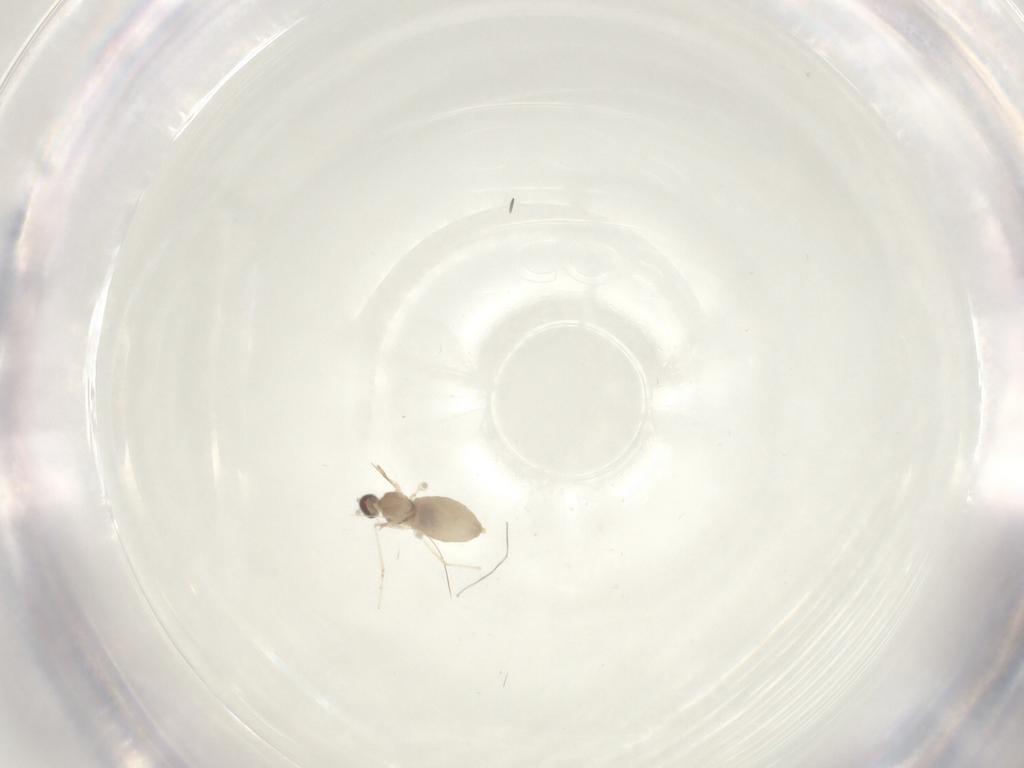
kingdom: Animalia
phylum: Arthropoda
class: Insecta
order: Diptera
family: Cecidomyiidae
